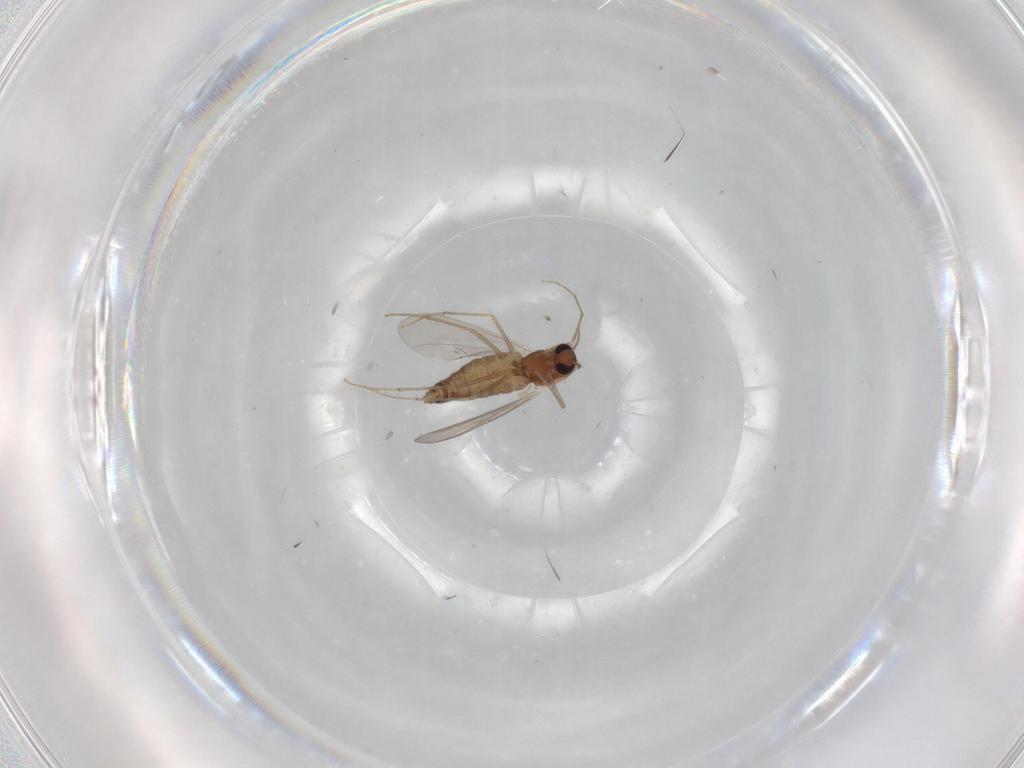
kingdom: Animalia
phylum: Arthropoda
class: Insecta
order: Diptera
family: Chironomidae
